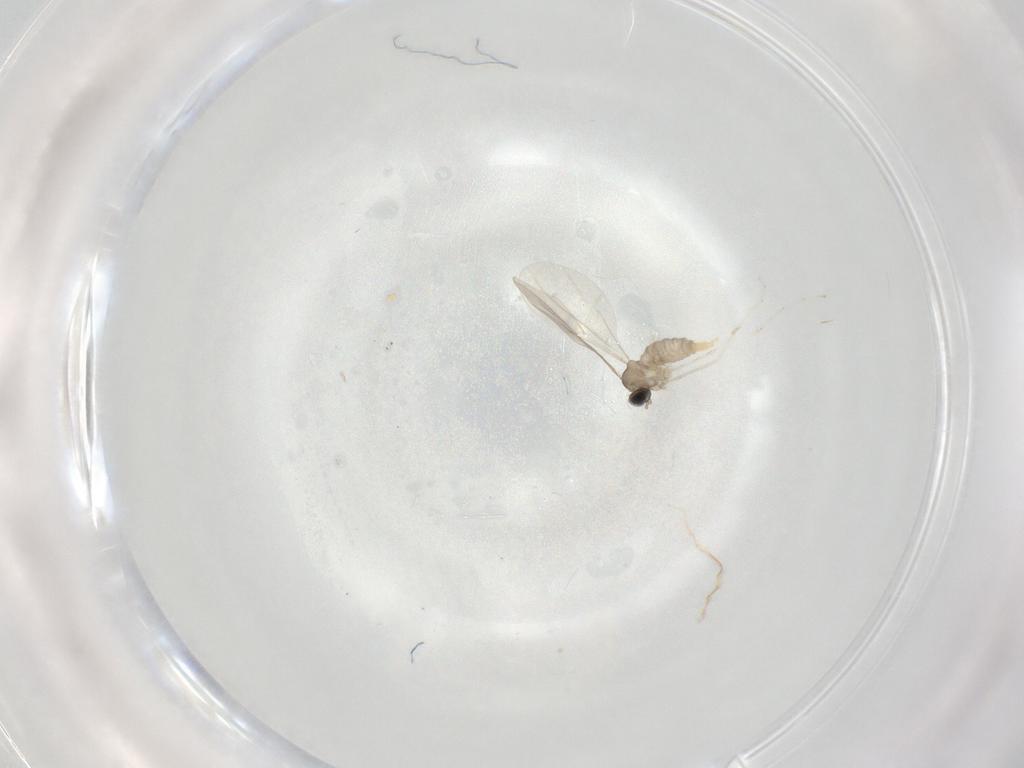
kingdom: Animalia
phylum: Arthropoda
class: Insecta
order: Diptera
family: Cecidomyiidae
